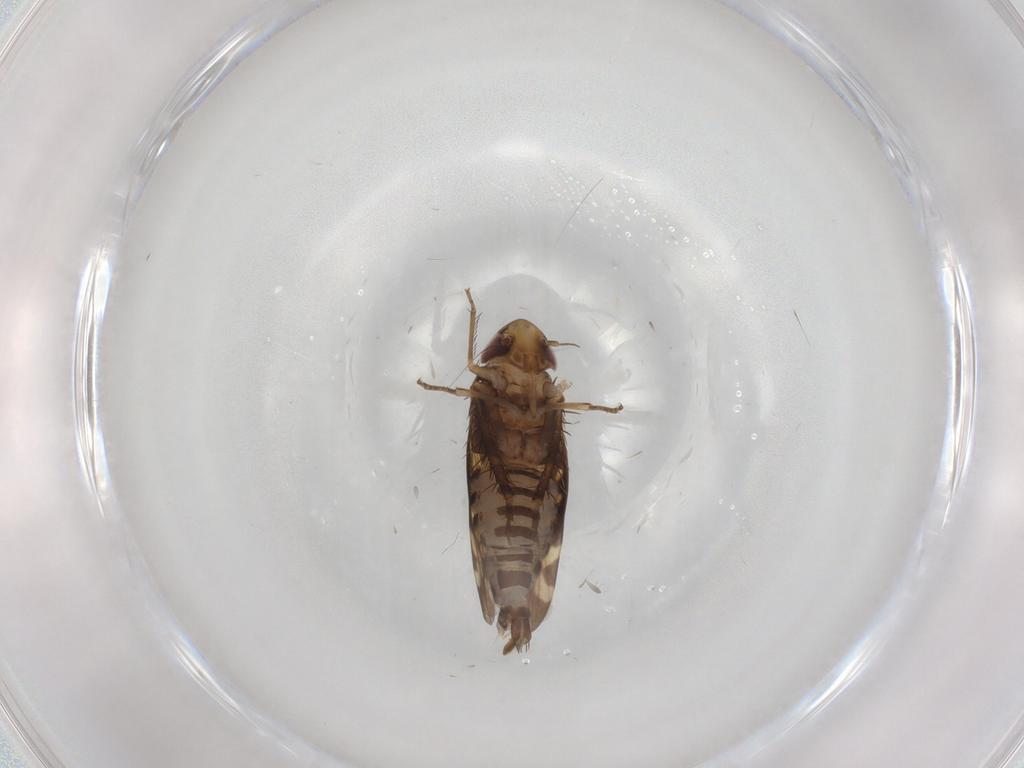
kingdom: Animalia
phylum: Arthropoda
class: Insecta
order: Hemiptera
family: Cicadellidae
